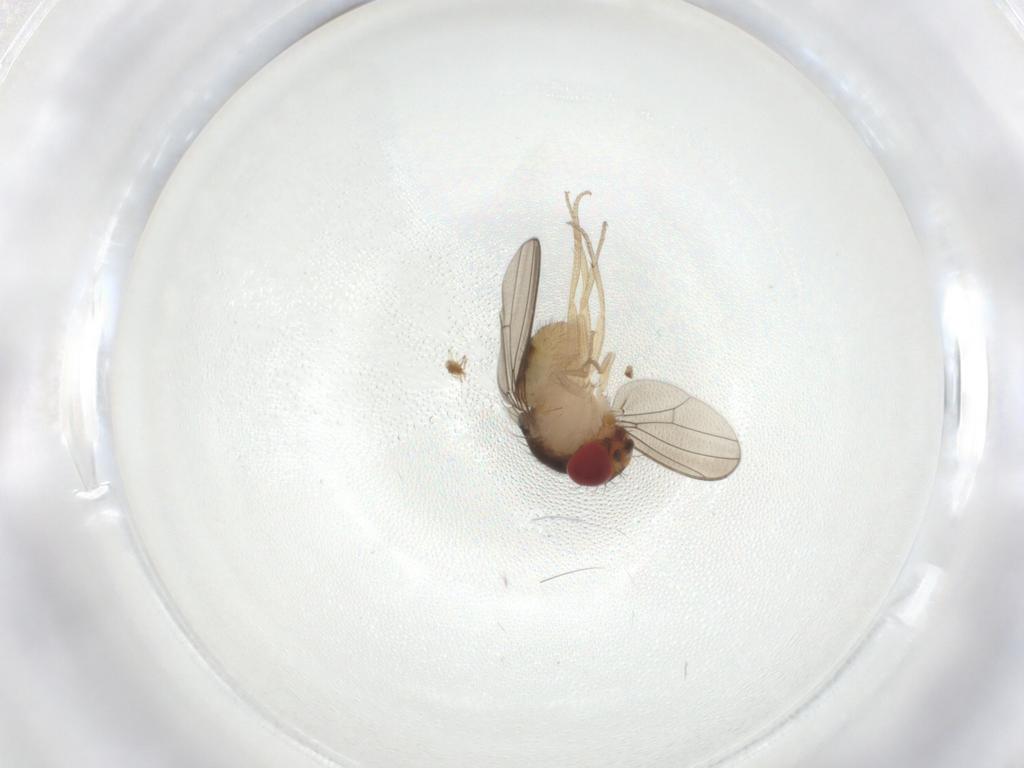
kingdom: Animalia
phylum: Arthropoda
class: Insecta
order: Diptera
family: Drosophilidae
